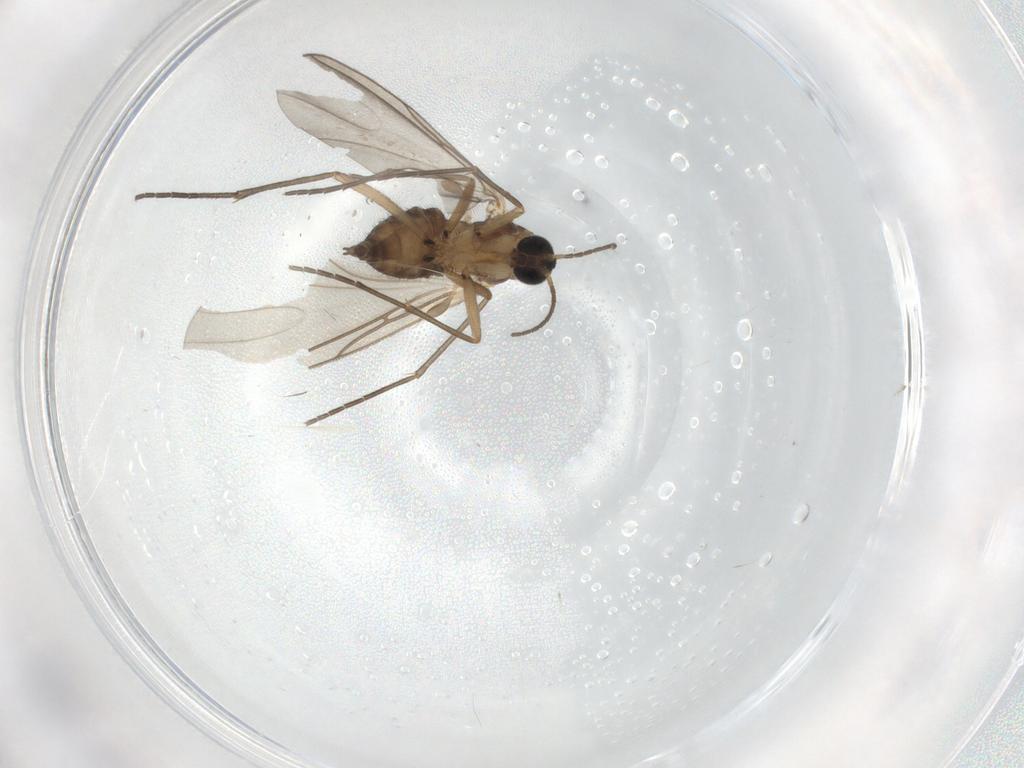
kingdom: Animalia
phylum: Arthropoda
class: Insecta
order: Diptera
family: Sciaridae
